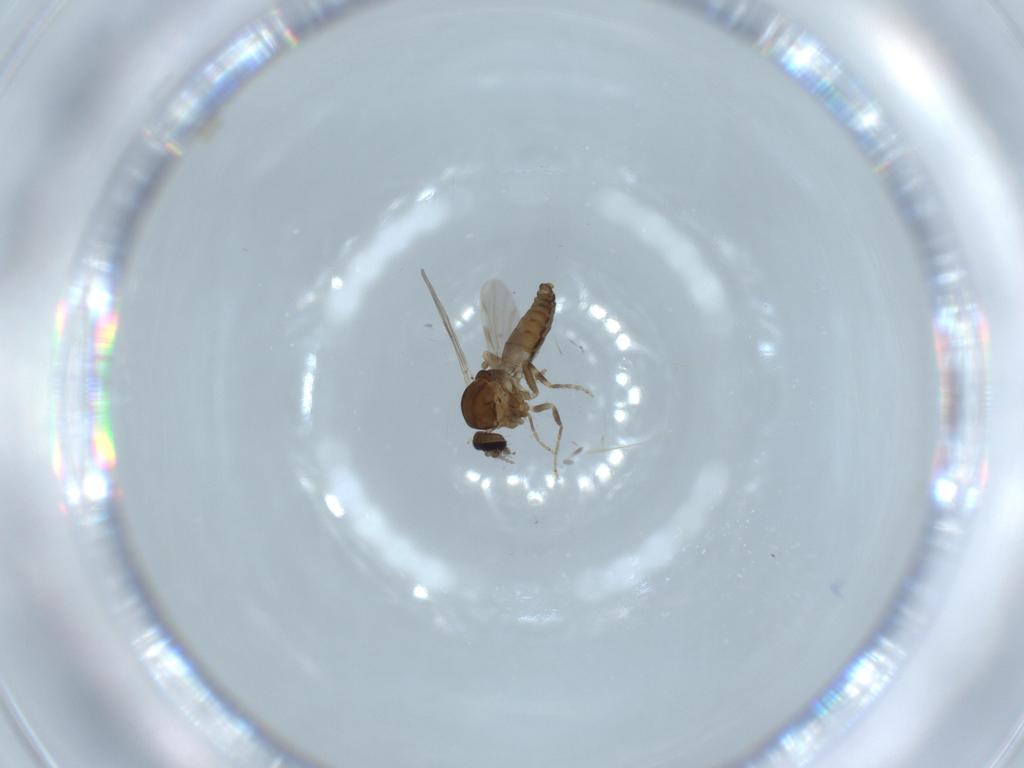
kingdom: Animalia
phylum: Arthropoda
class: Insecta
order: Diptera
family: Ceratopogonidae
